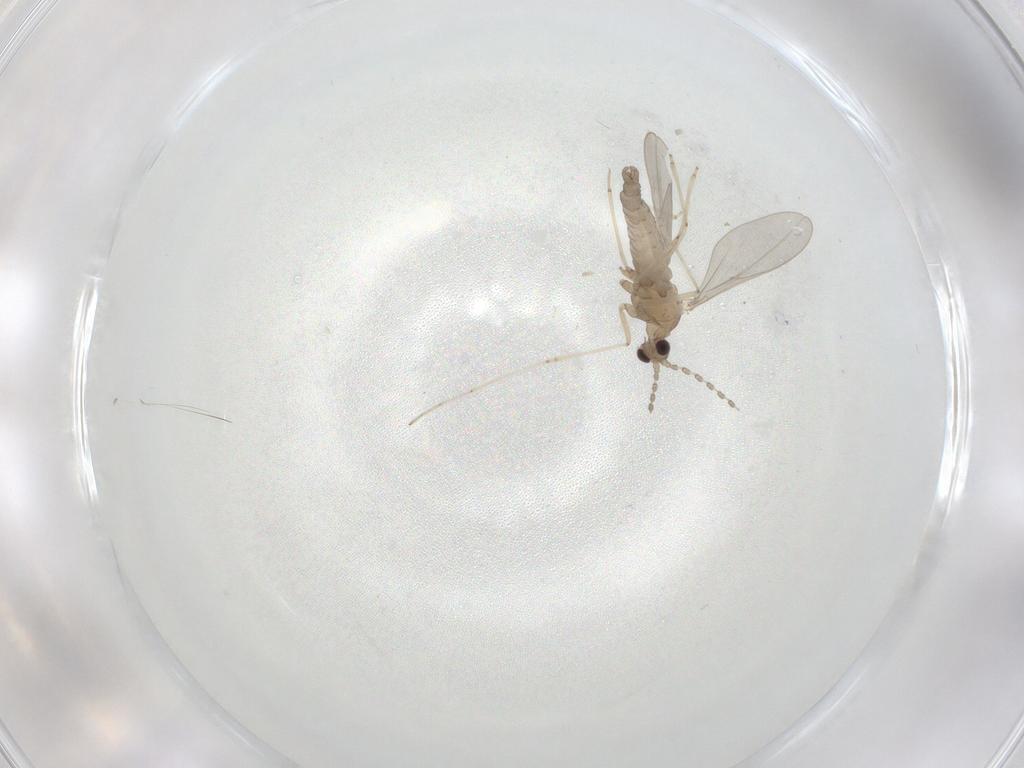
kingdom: Animalia
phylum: Arthropoda
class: Insecta
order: Diptera
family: Cecidomyiidae
